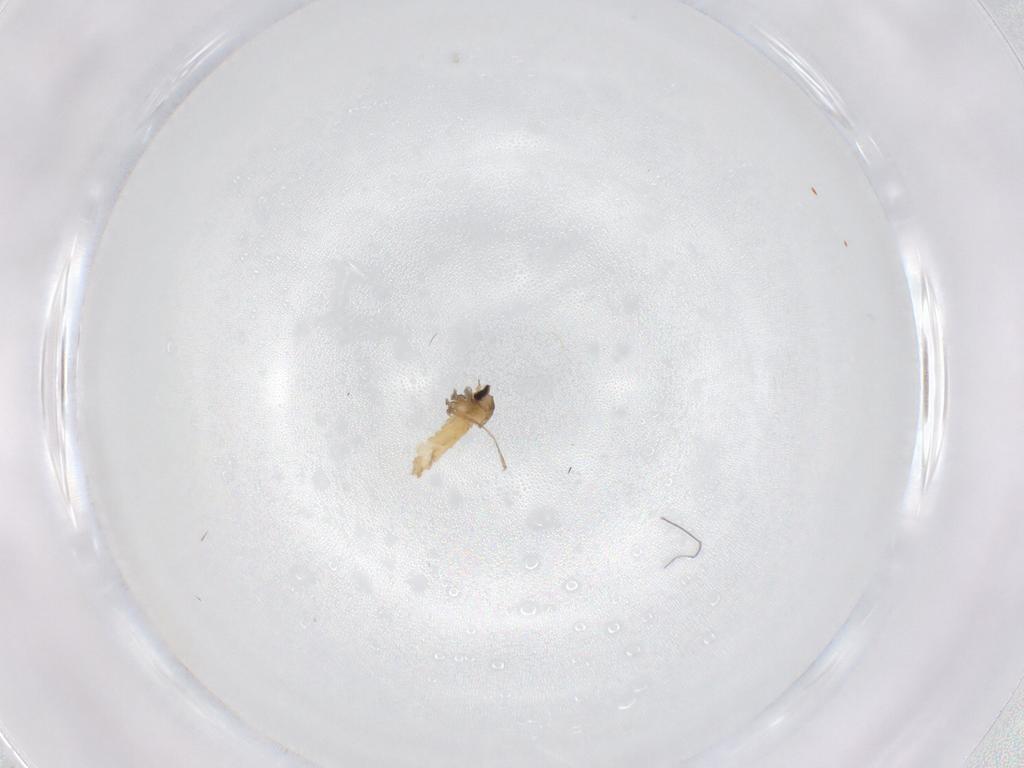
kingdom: Animalia
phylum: Arthropoda
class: Insecta
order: Diptera
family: Cecidomyiidae
